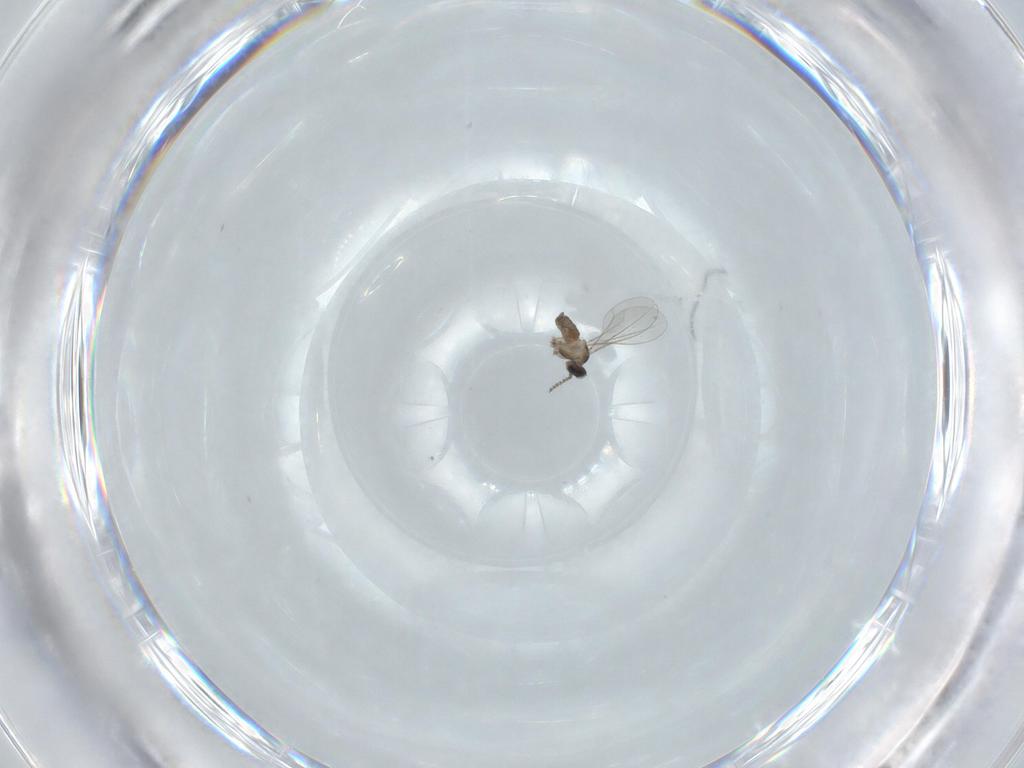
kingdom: Animalia
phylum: Arthropoda
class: Insecta
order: Diptera
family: Cecidomyiidae
